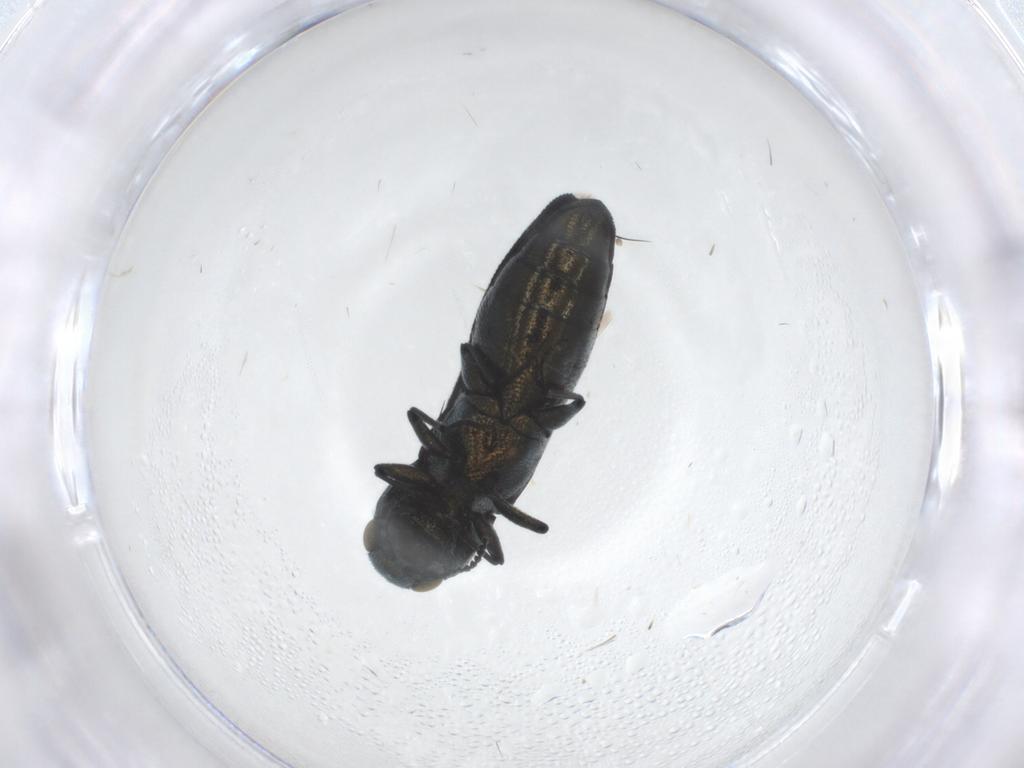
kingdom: Animalia
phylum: Arthropoda
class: Insecta
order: Coleoptera
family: Buprestidae
